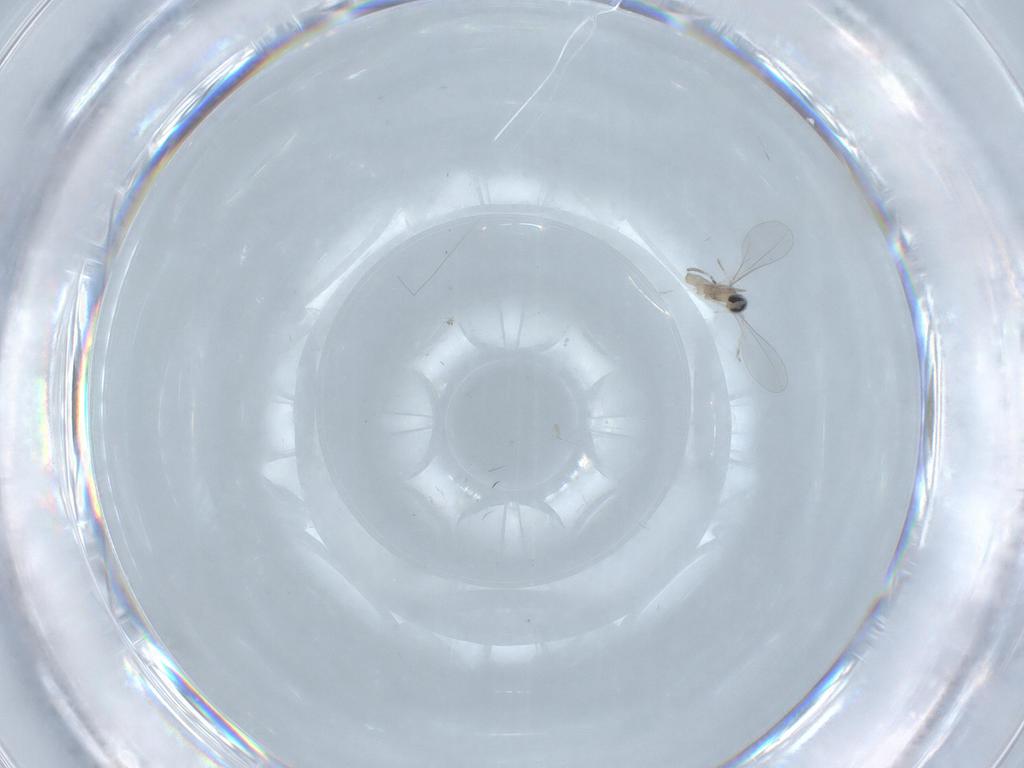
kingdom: Animalia
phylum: Arthropoda
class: Insecta
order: Diptera
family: Cecidomyiidae
